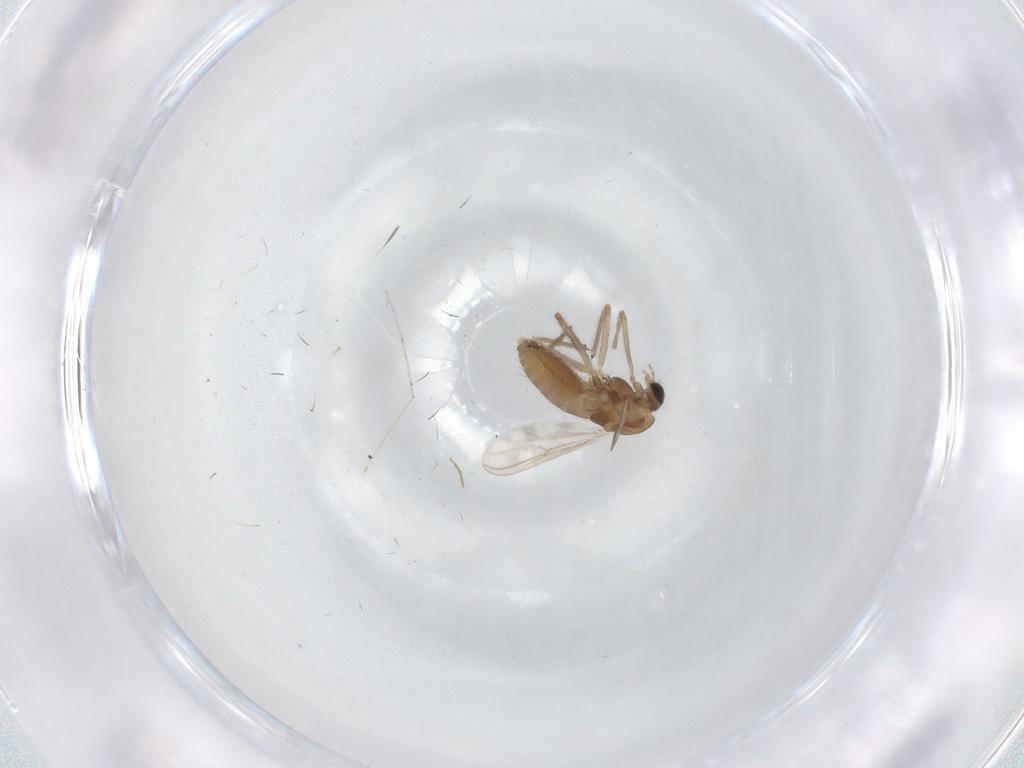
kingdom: Animalia
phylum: Arthropoda
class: Insecta
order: Diptera
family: Chironomidae
